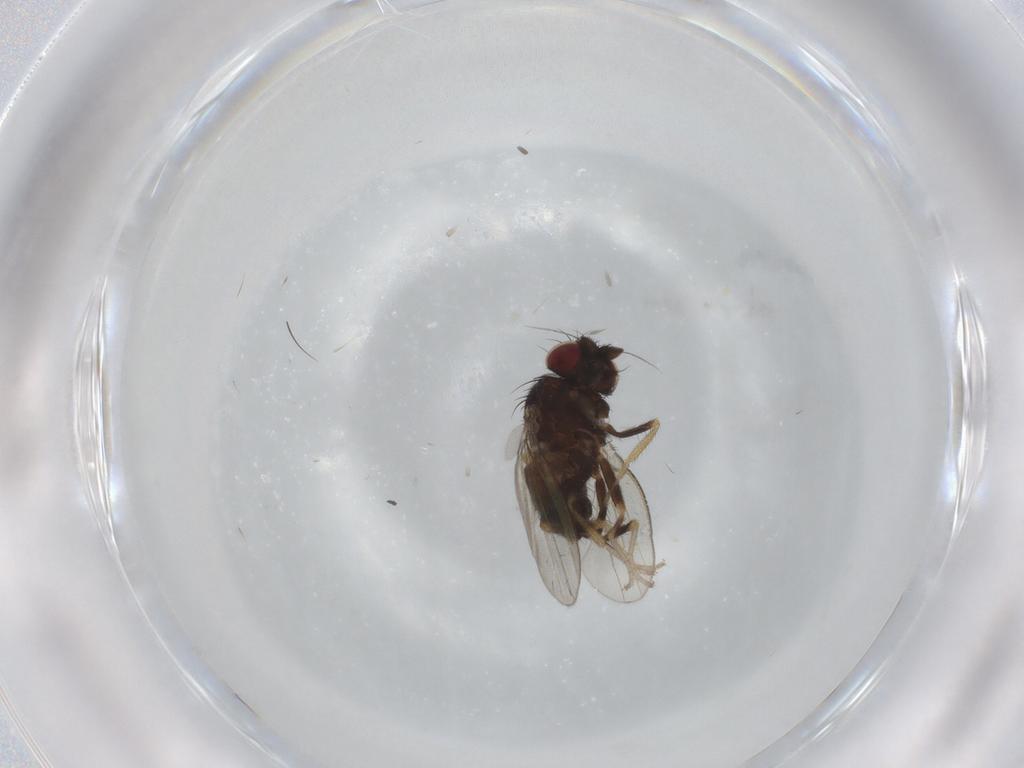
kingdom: Animalia
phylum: Arthropoda
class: Insecta
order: Diptera
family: Milichiidae
